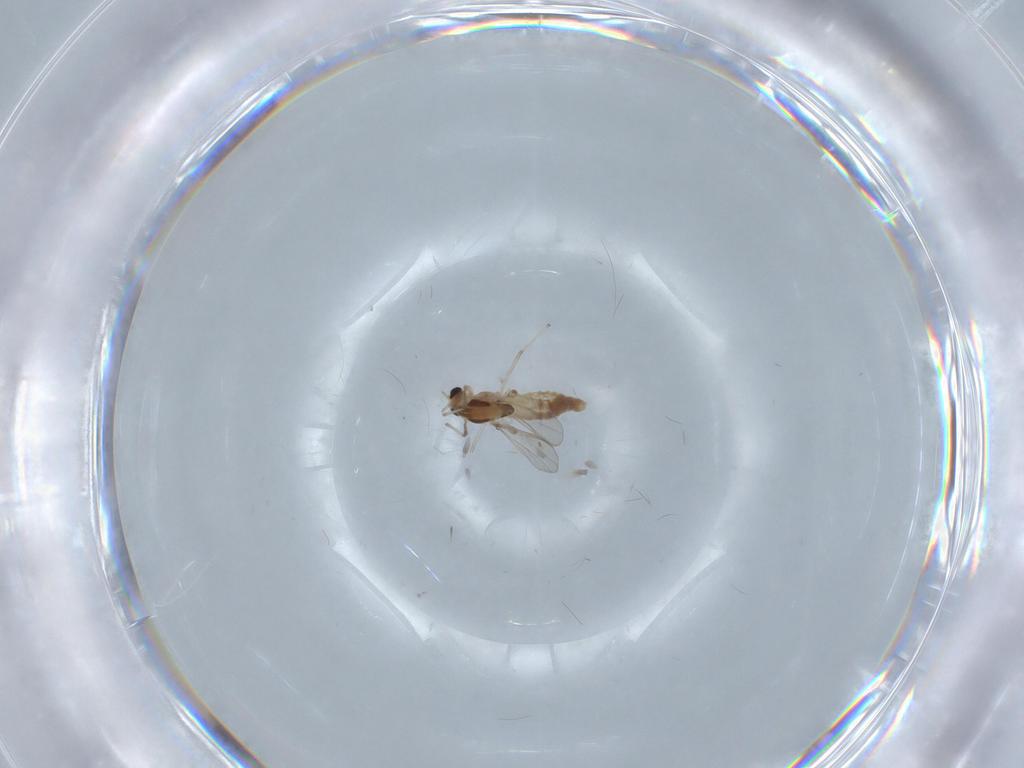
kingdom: Animalia
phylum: Arthropoda
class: Insecta
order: Diptera
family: Chironomidae
